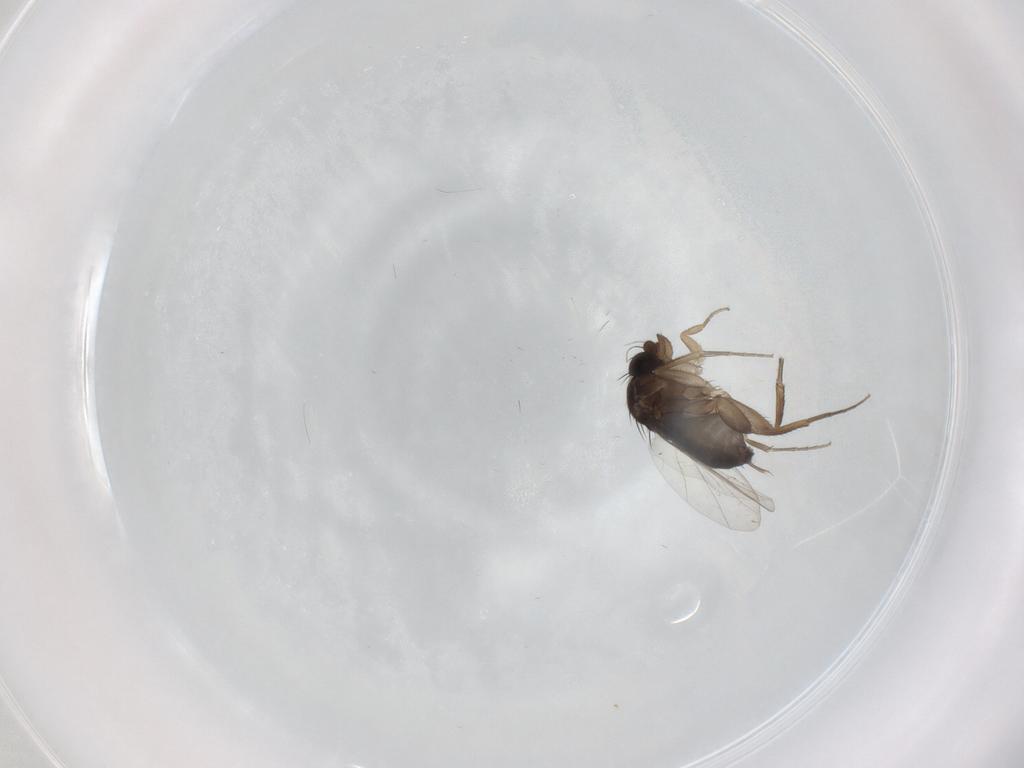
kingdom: Animalia
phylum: Arthropoda
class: Insecta
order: Diptera
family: Phoridae
